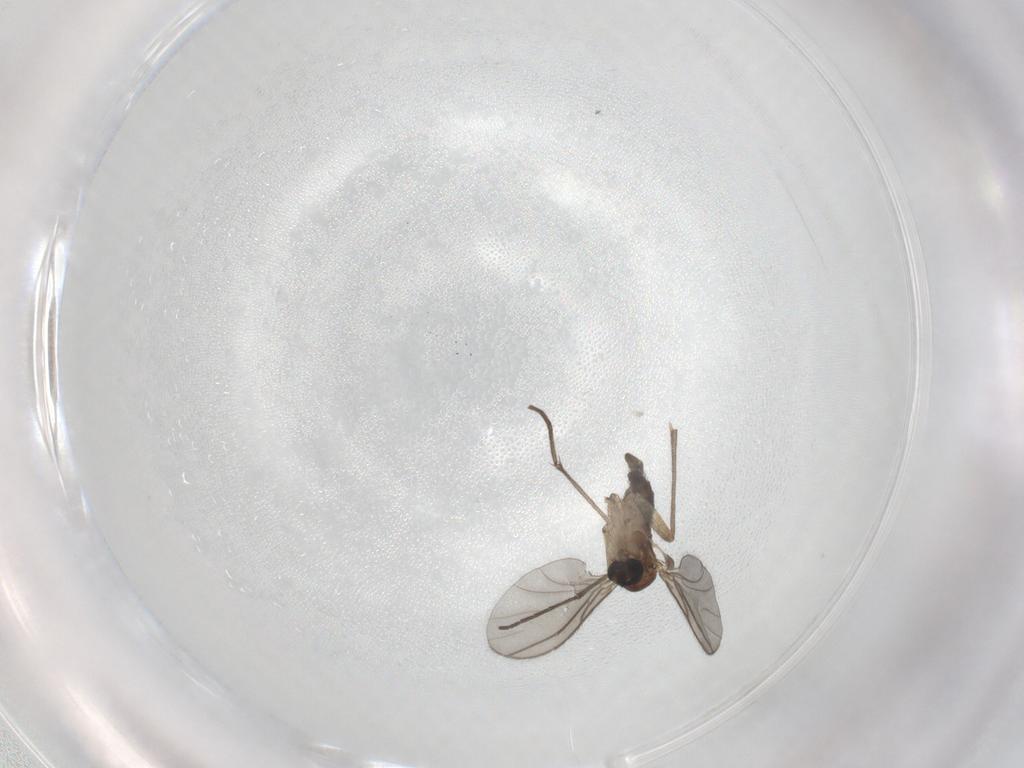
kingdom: Animalia
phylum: Arthropoda
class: Insecta
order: Diptera
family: Sciaridae
